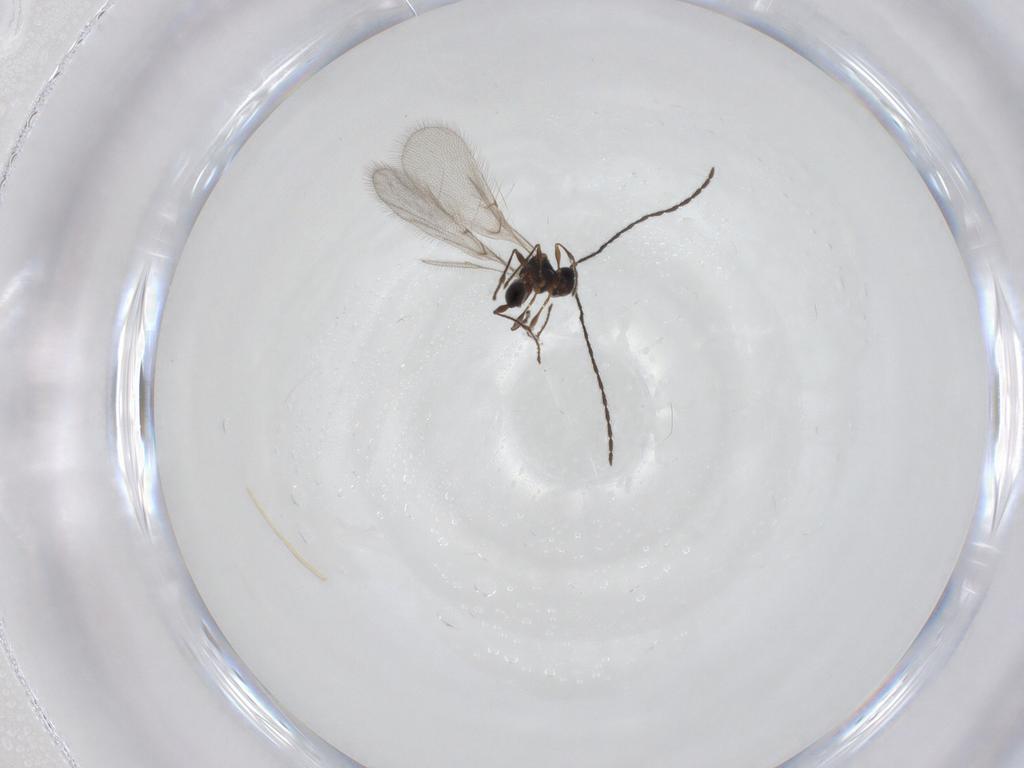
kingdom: Animalia
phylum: Arthropoda
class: Insecta
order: Hymenoptera
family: Diapriidae
